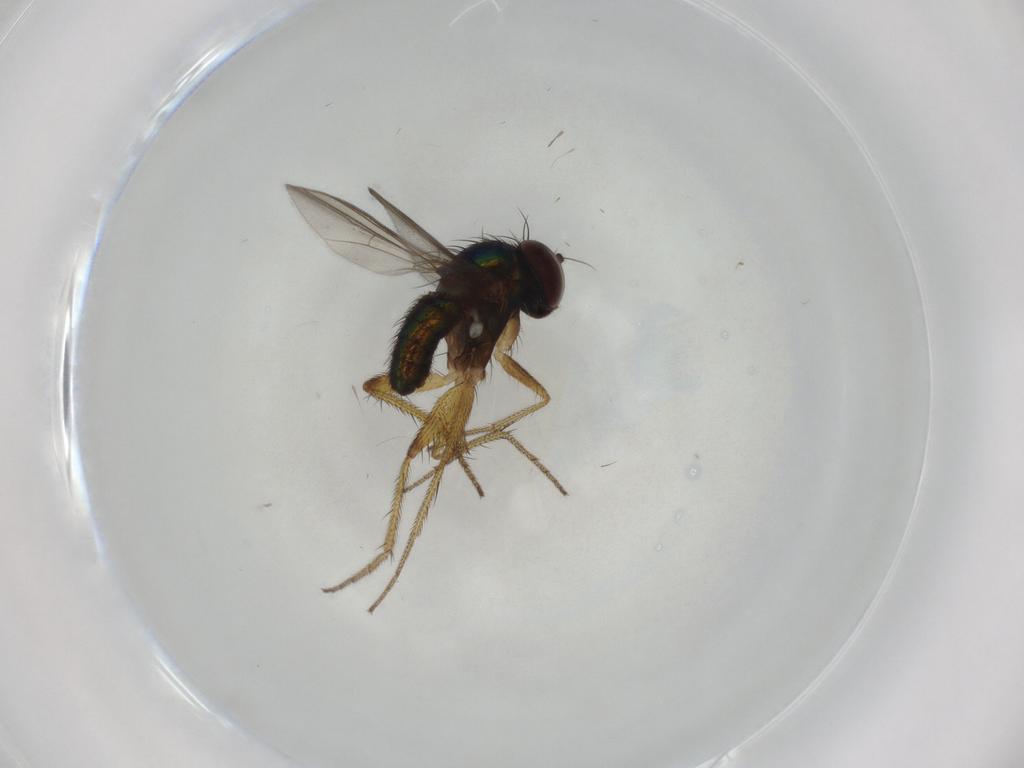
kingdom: Animalia
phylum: Arthropoda
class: Insecta
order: Diptera
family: Sciaridae
